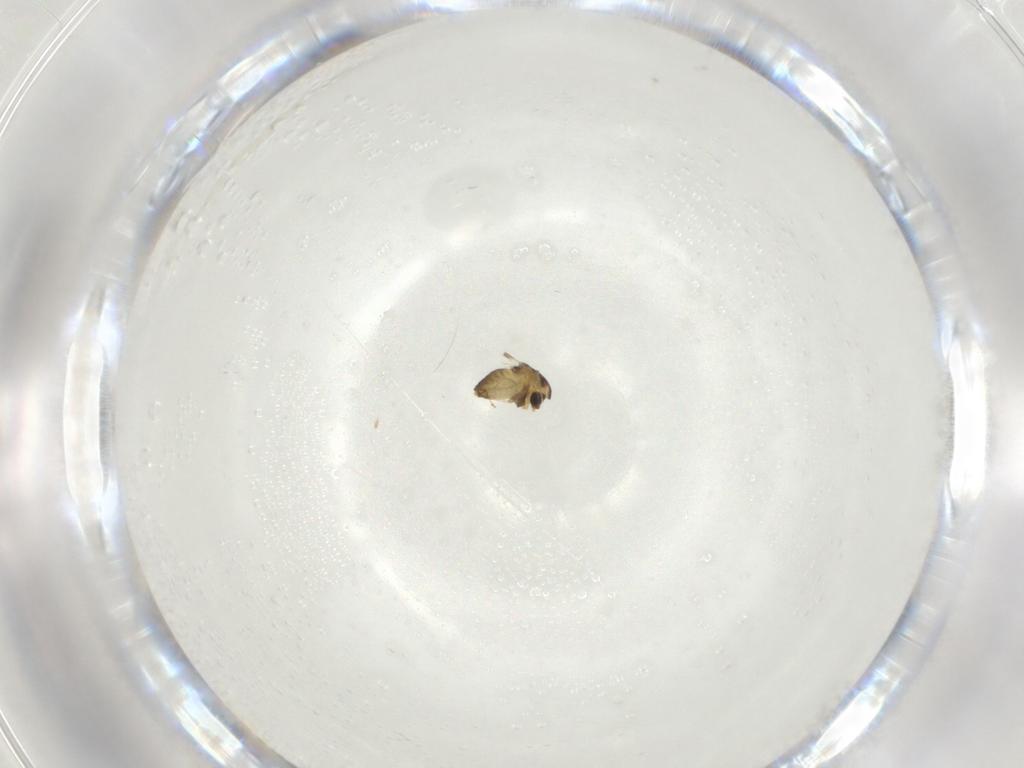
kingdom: Animalia
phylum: Arthropoda
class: Insecta
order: Diptera
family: Chironomidae
